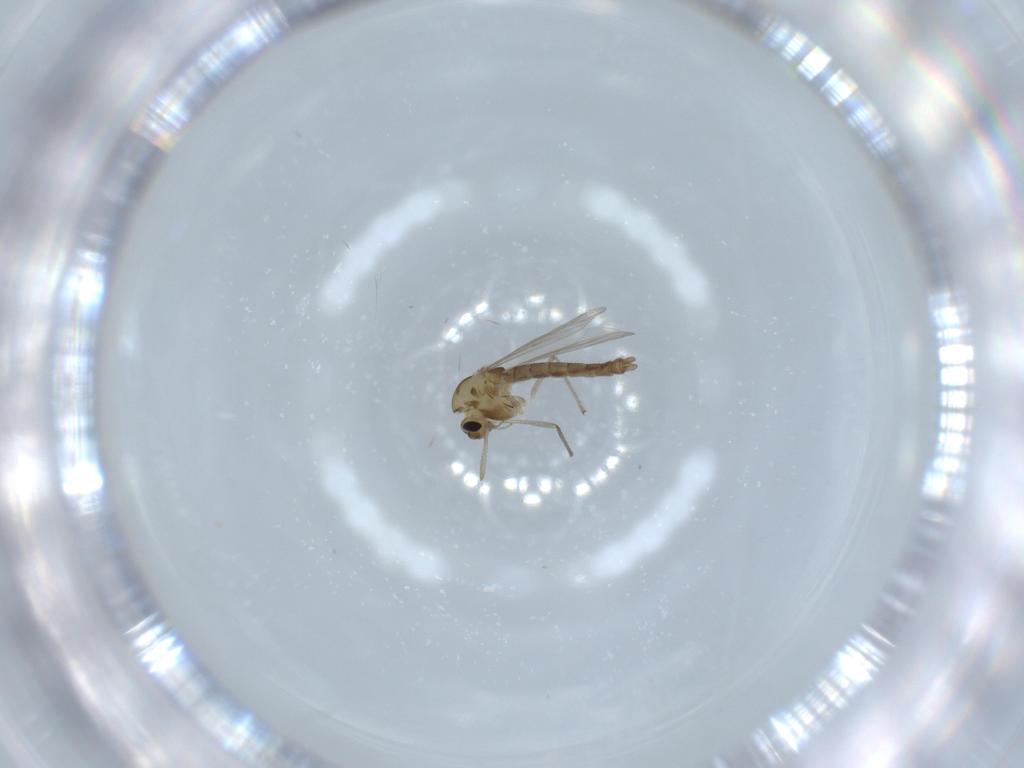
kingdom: Animalia
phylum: Arthropoda
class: Insecta
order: Diptera
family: Chironomidae
